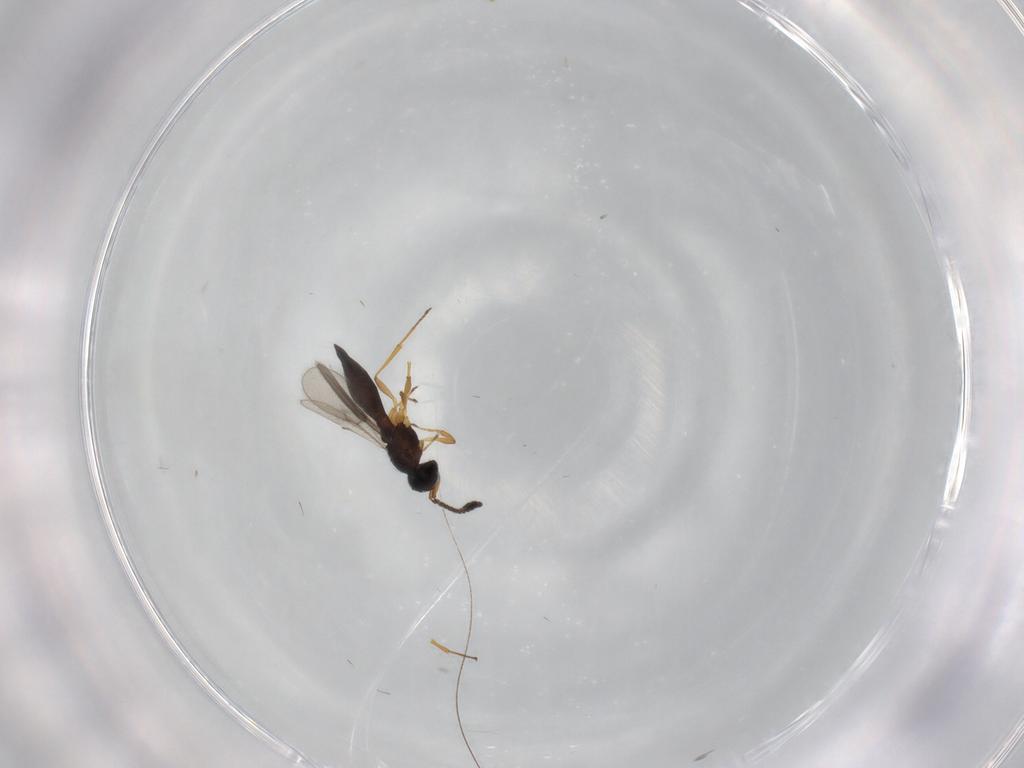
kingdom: Animalia
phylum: Arthropoda
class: Insecta
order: Hymenoptera
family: Scelionidae
